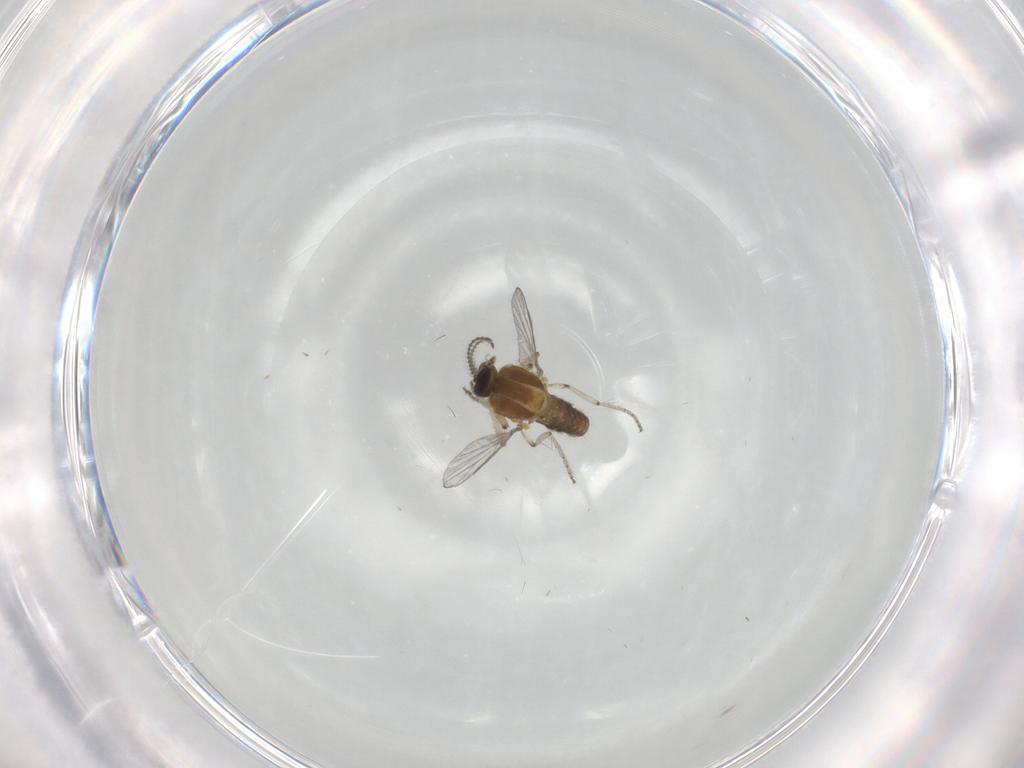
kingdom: Animalia
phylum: Arthropoda
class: Insecta
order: Diptera
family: Ceratopogonidae
